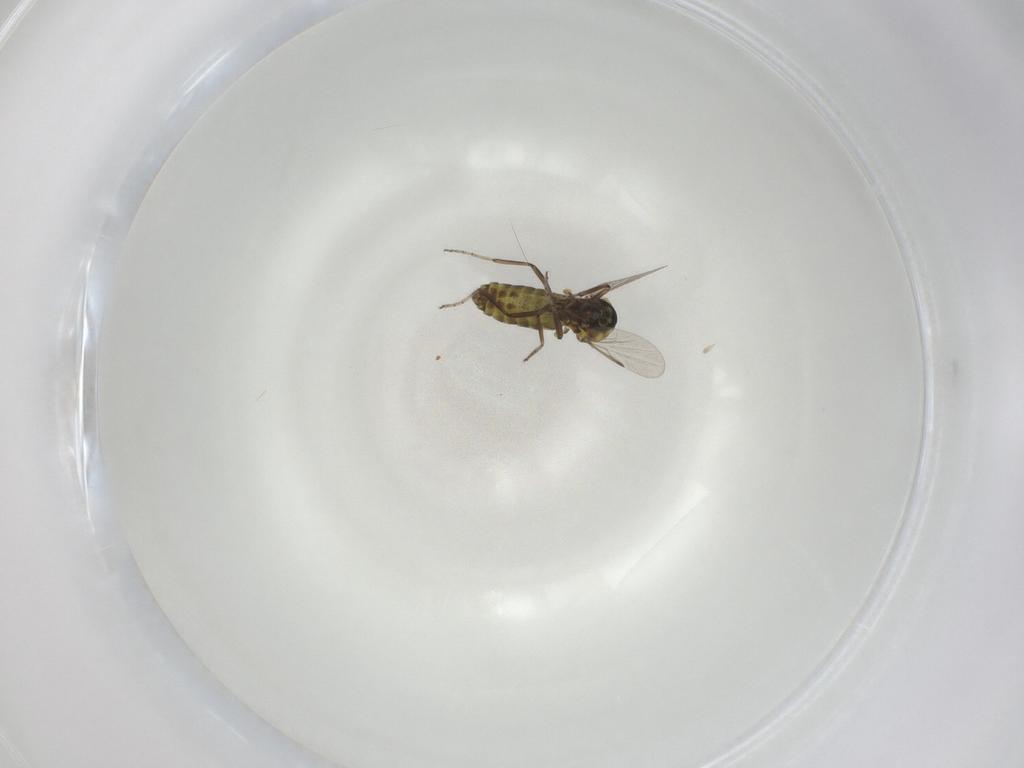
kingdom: Animalia
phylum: Arthropoda
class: Insecta
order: Diptera
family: Ceratopogonidae
